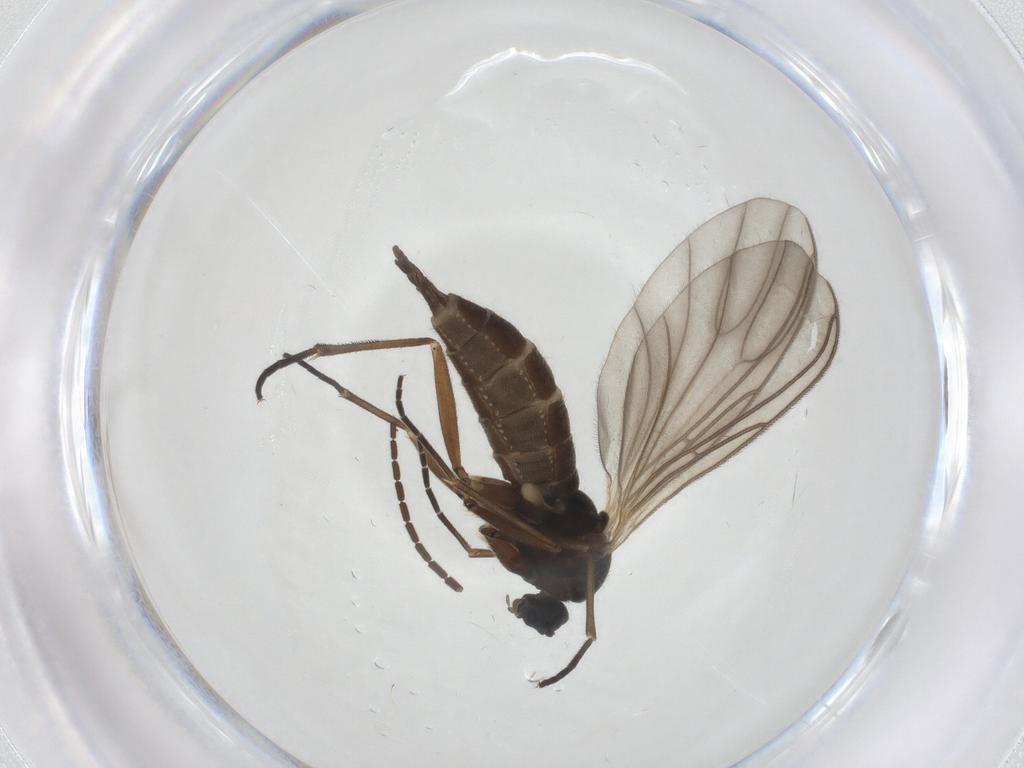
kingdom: Animalia
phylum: Arthropoda
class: Insecta
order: Diptera
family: Sciaridae
